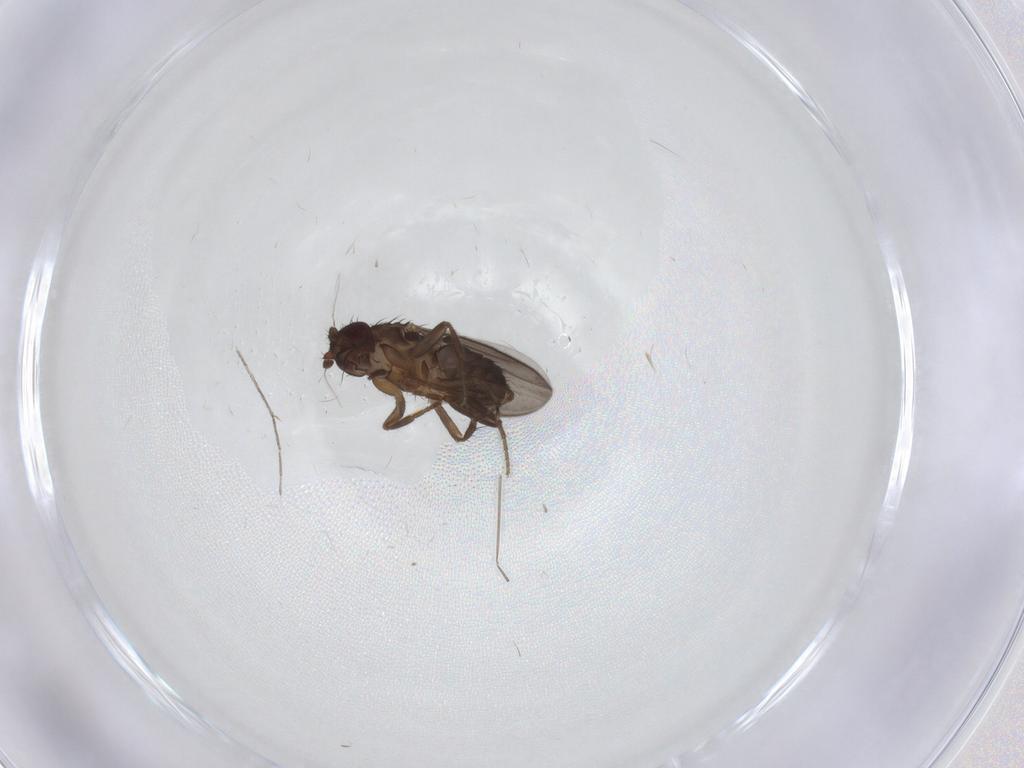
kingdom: Animalia
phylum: Arthropoda
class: Insecta
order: Diptera
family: Sphaeroceridae
